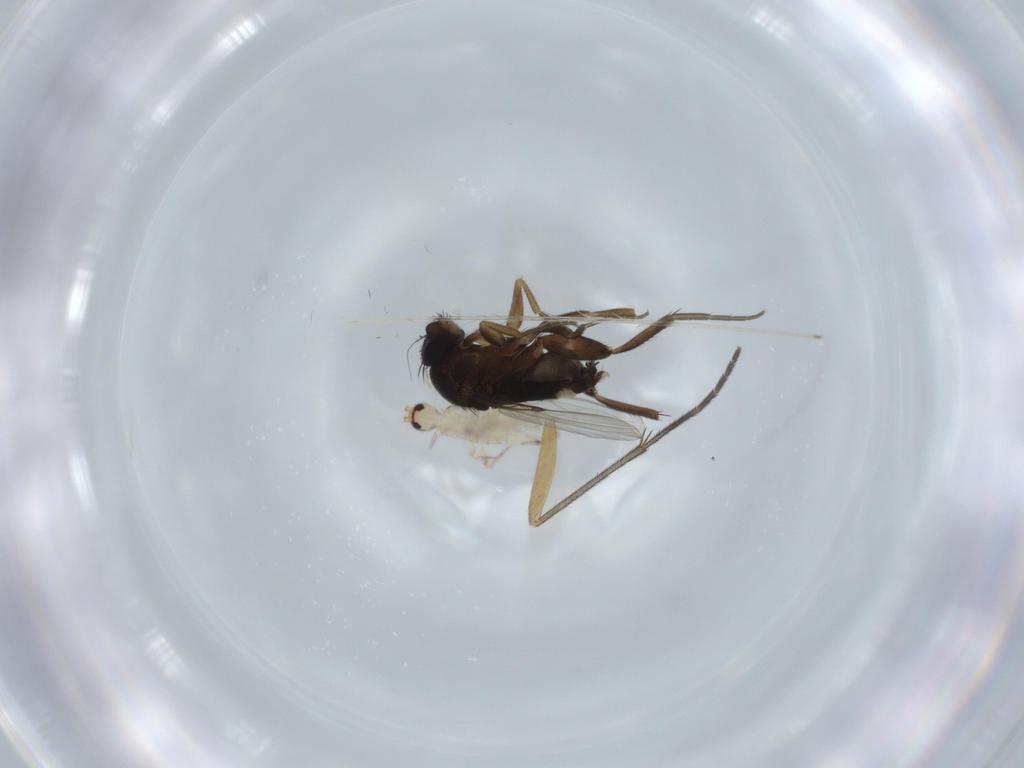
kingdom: Animalia
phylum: Arthropoda
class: Collembola
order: Entomobryomorpha
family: Entomobryidae
